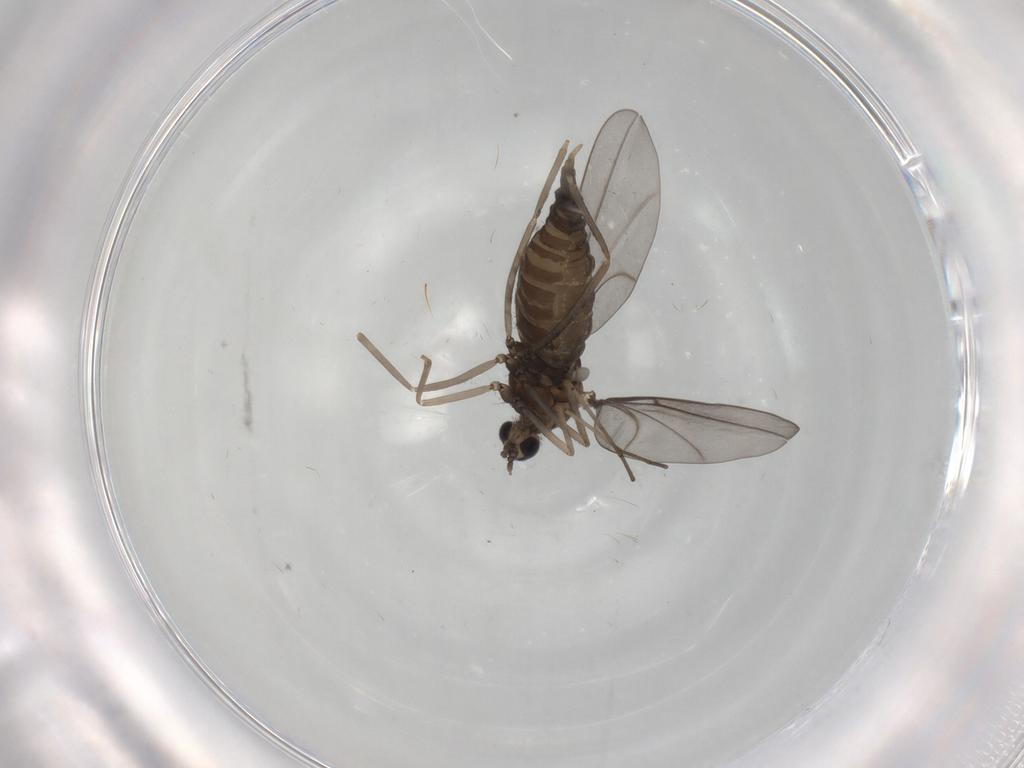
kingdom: Animalia
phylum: Arthropoda
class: Insecta
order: Diptera
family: Cecidomyiidae
